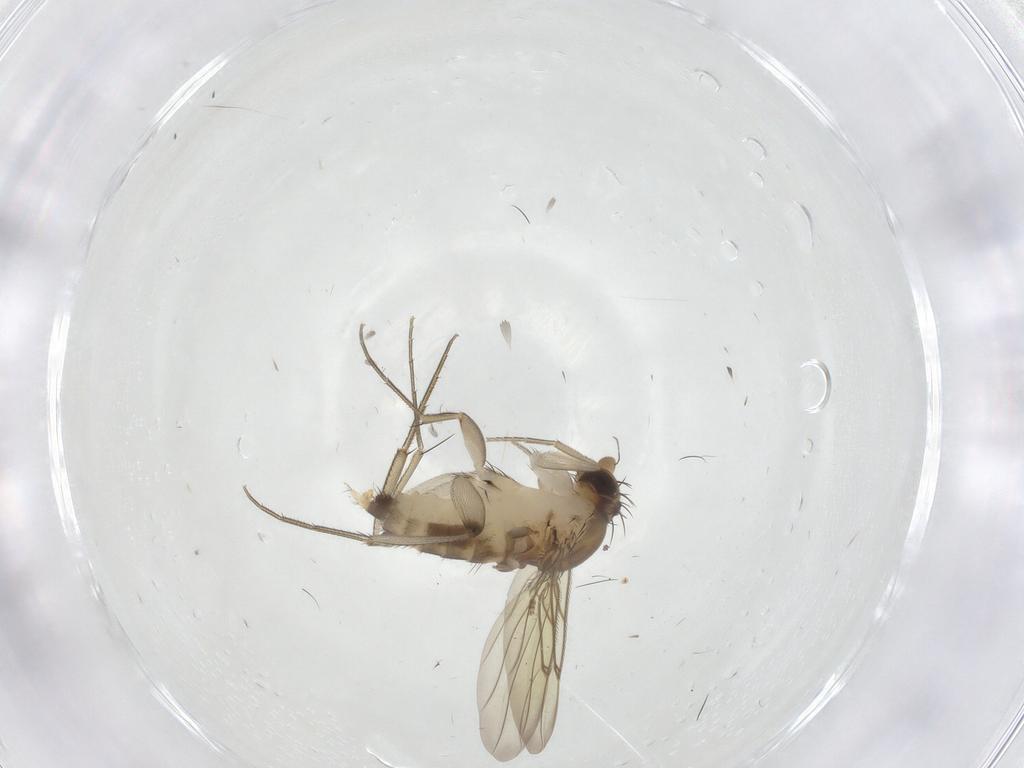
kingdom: Animalia
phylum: Arthropoda
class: Insecta
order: Diptera
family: Phoridae
